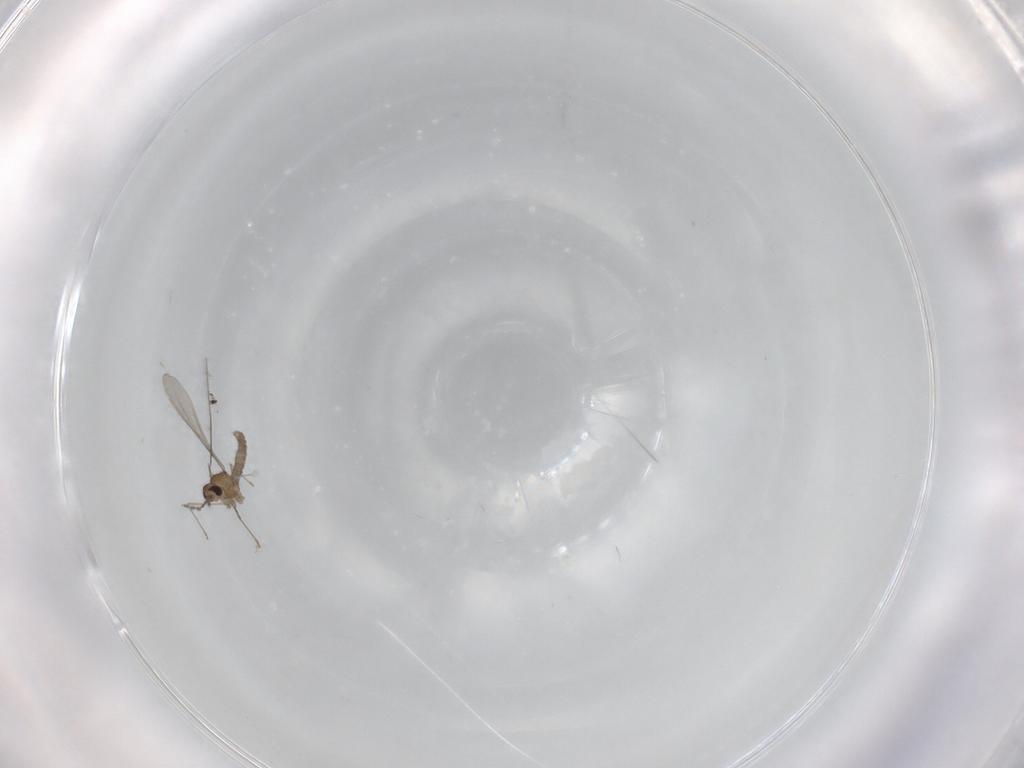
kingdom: Animalia
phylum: Arthropoda
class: Insecta
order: Diptera
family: Cecidomyiidae
